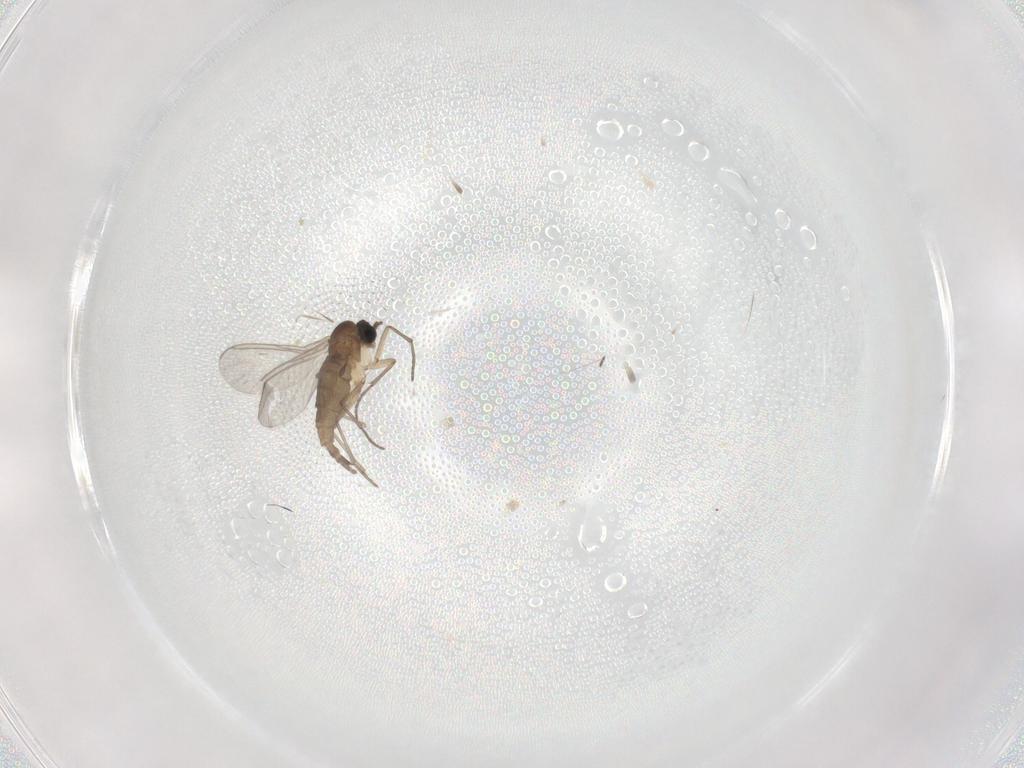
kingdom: Animalia
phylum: Arthropoda
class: Insecta
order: Diptera
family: Sciaridae
